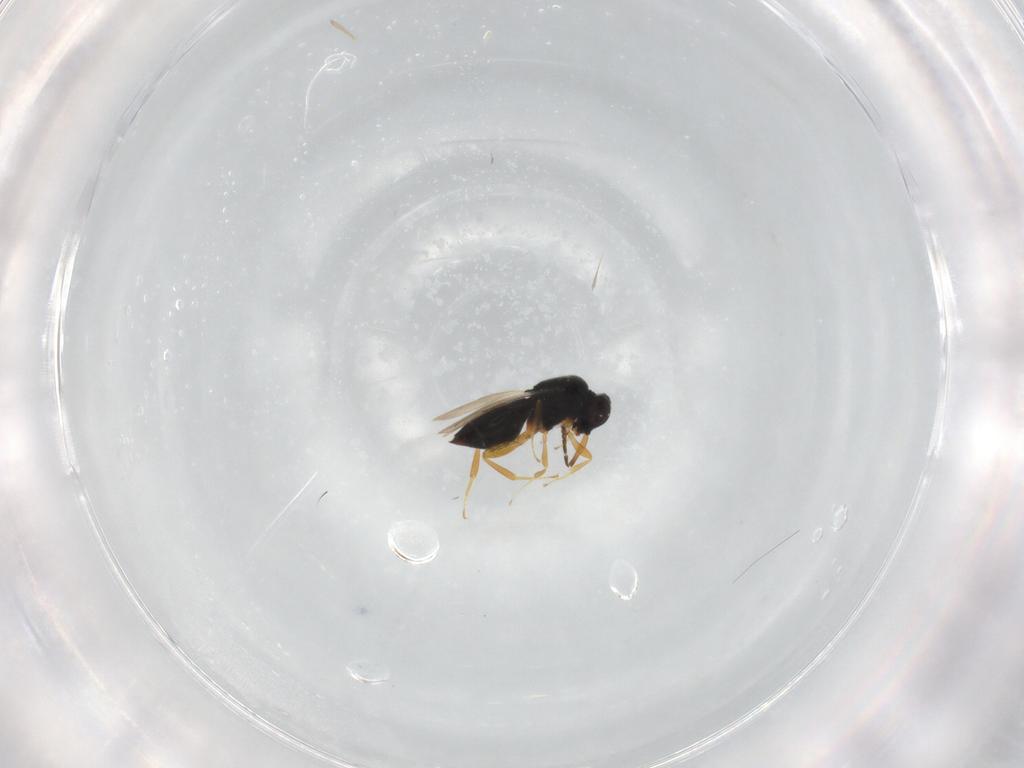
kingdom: Animalia
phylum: Arthropoda
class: Insecta
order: Hymenoptera
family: Ceraphronidae
